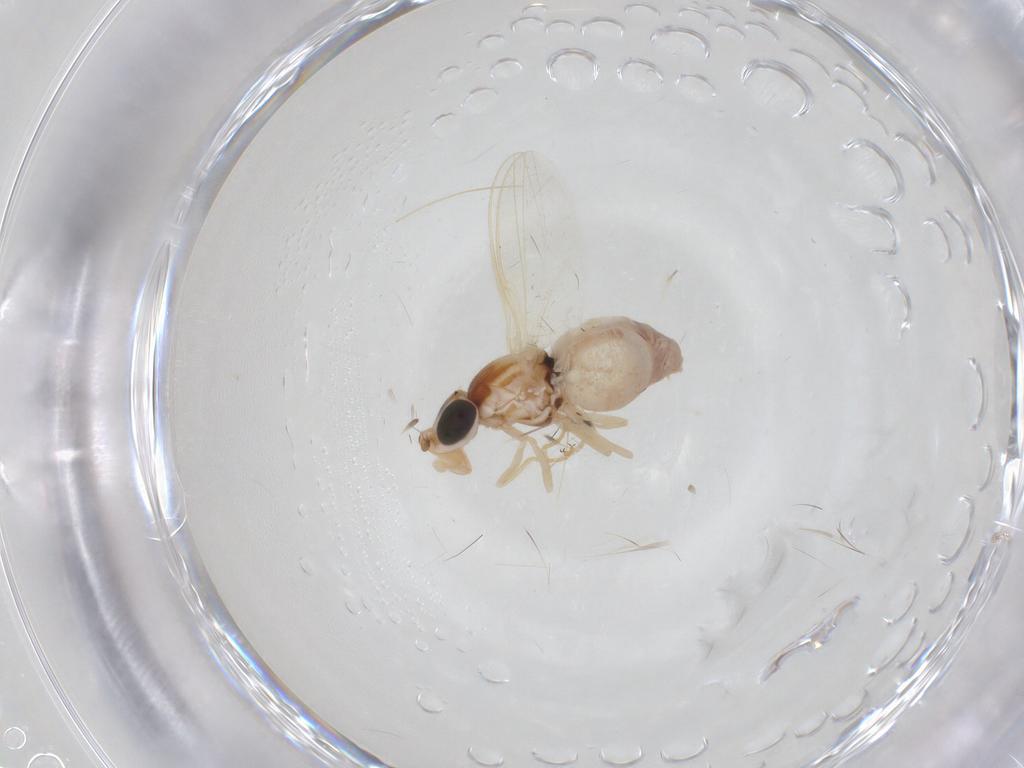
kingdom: Animalia
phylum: Arthropoda
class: Insecta
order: Diptera
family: Chloropidae
